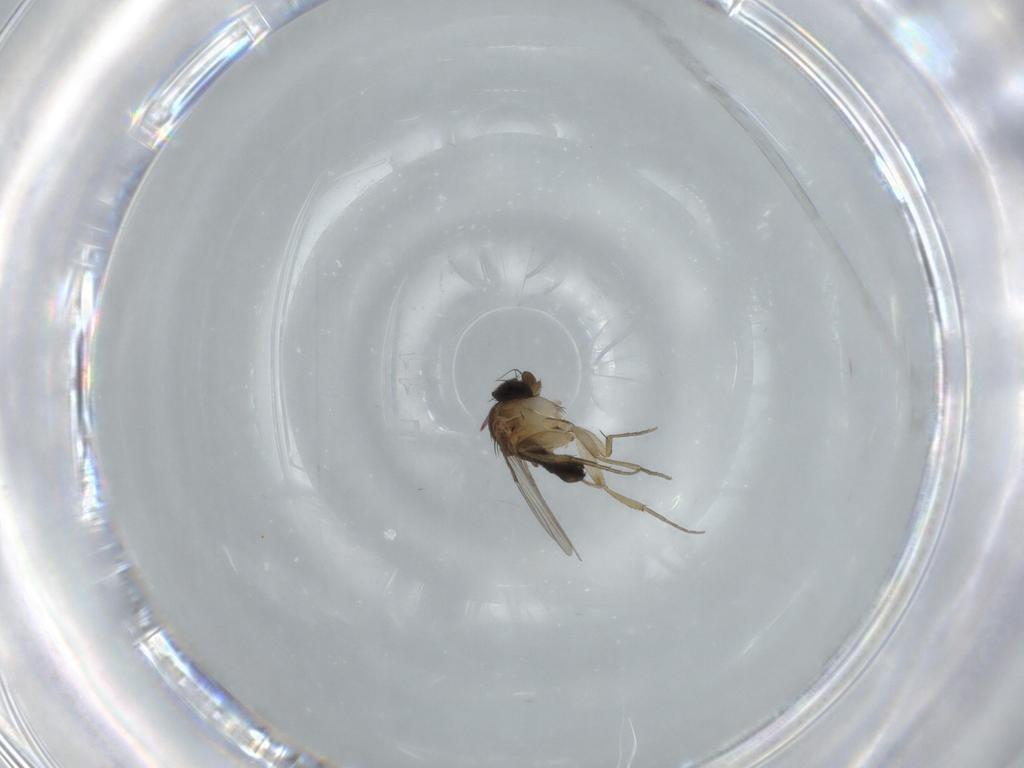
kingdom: Animalia
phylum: Arthropoda
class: Insecta
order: Diptera
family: Phoridae
